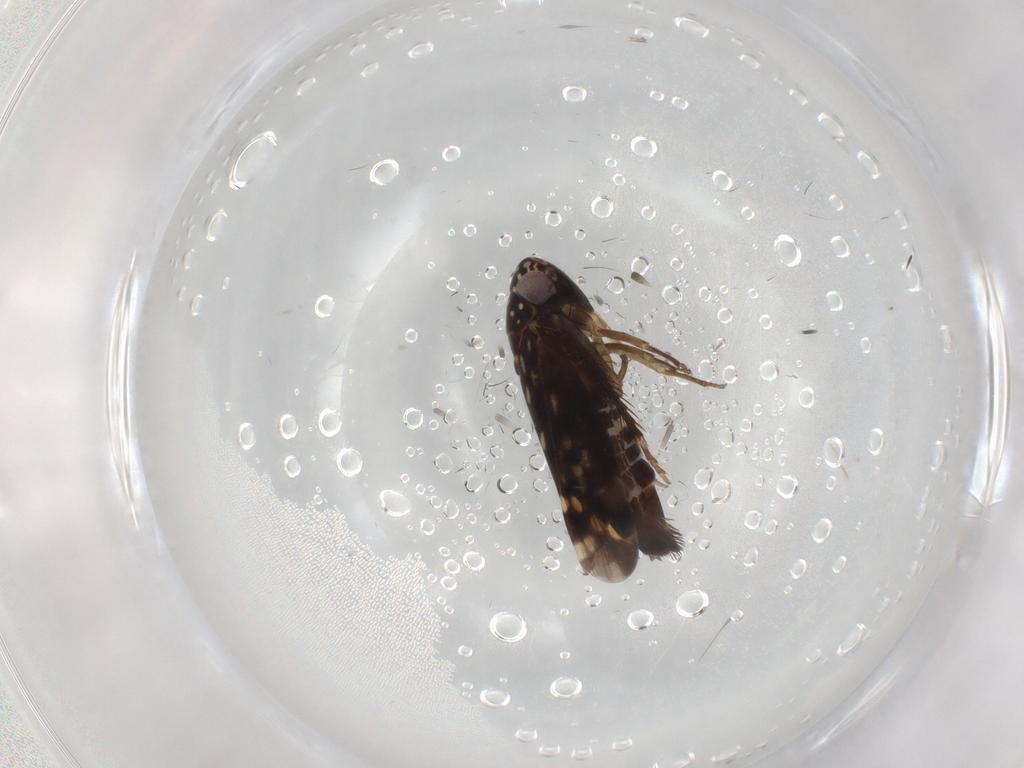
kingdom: Animalia
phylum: Arthropoda
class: Insecta
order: Hemiptera
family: Cicadellidae
